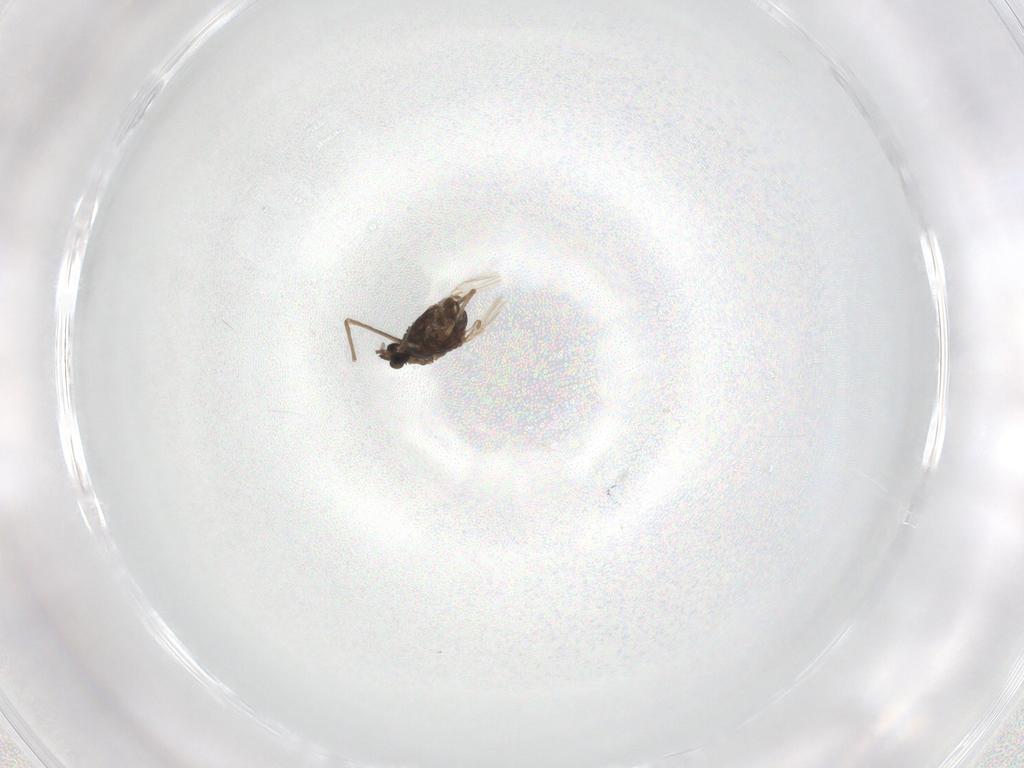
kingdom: Animalia
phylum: Arthropoda
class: Insecta
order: Diptera
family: Chironomidae
